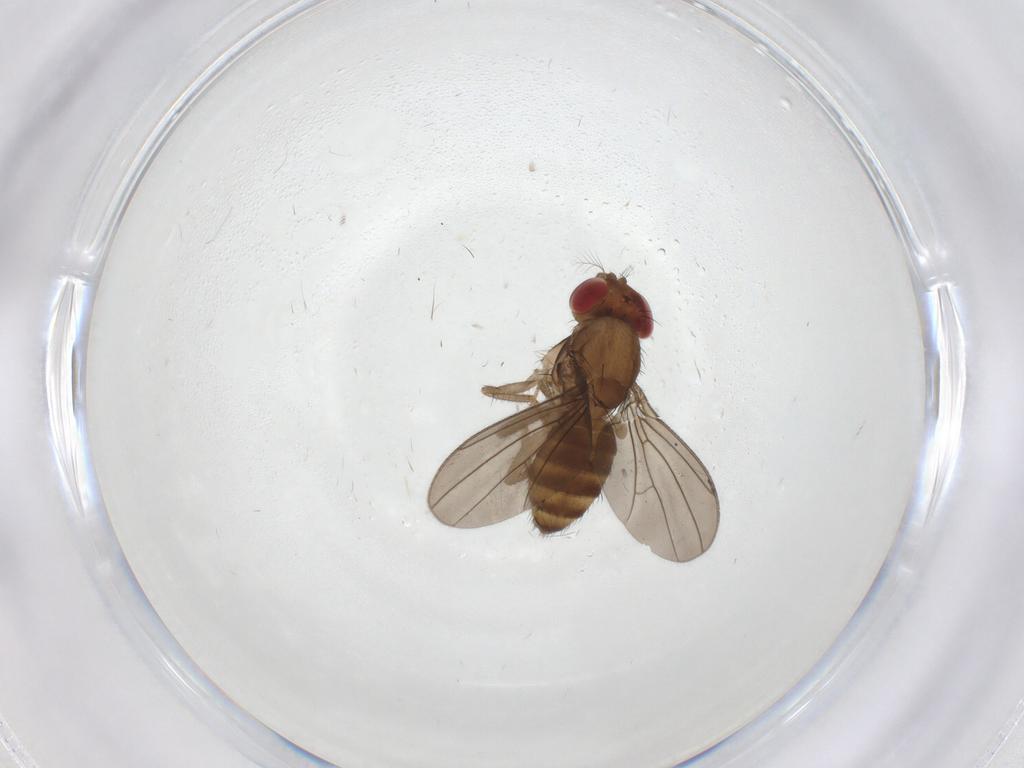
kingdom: Animalia
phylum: Arthropoda
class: Insecta
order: Diptera
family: Drosophilidae
